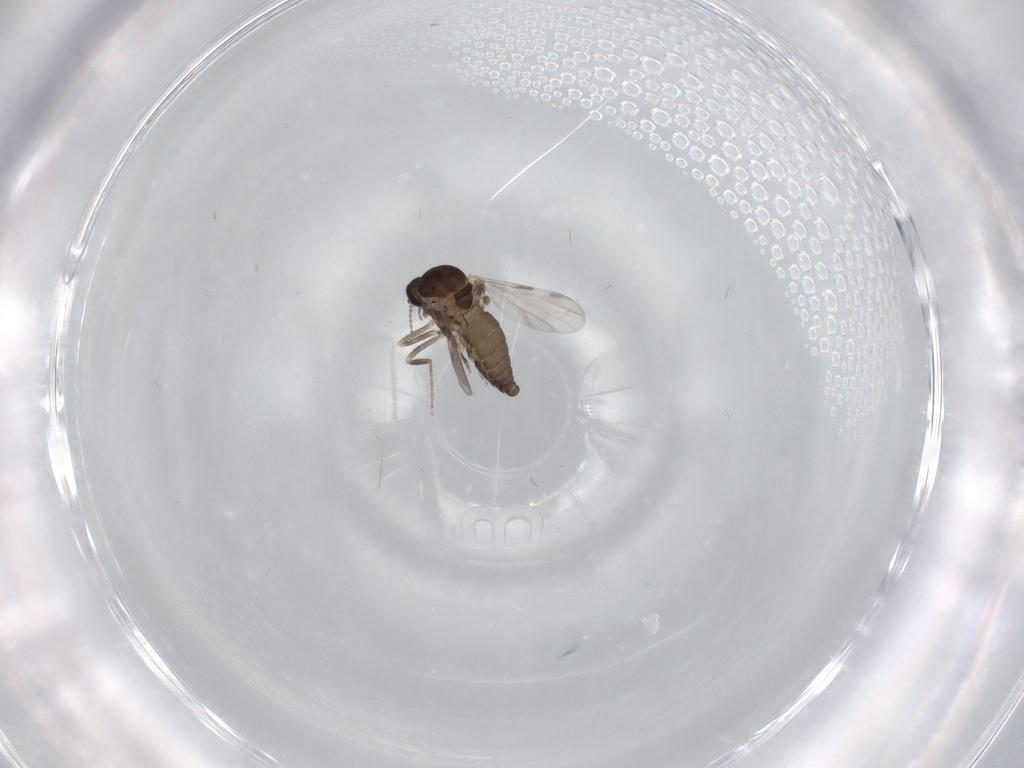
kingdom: Animalia
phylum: Arthropoda
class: Insecta
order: Diptera
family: Ceratopogonidae
